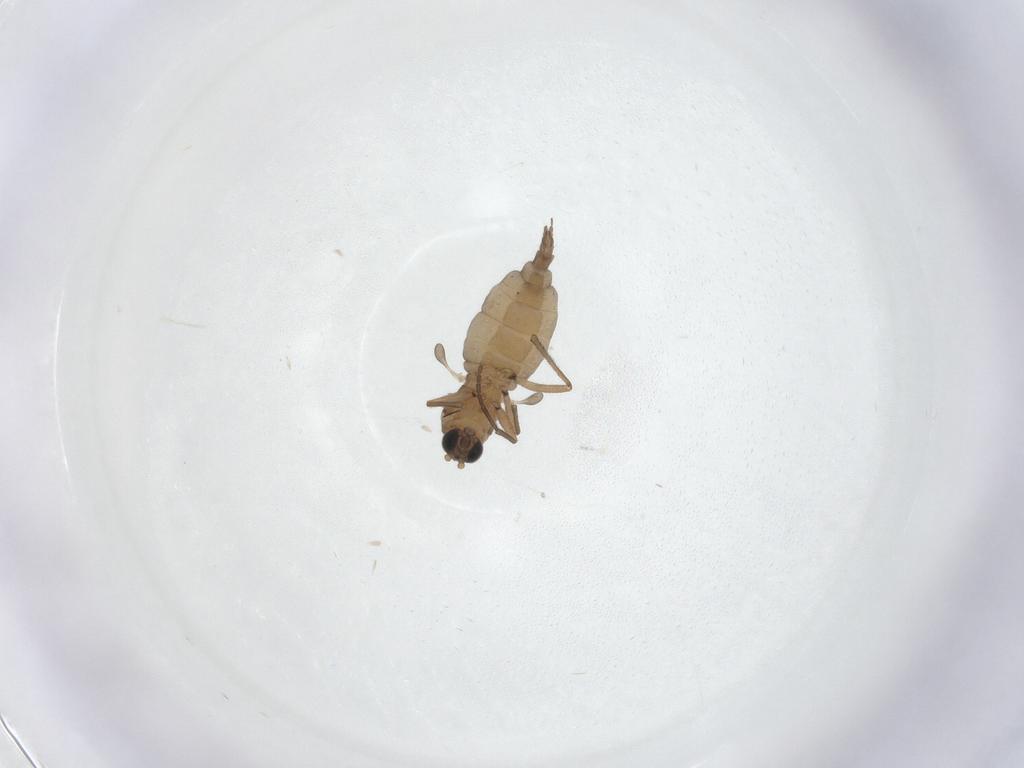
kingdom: Animalia
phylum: Arthropoda
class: Insecta
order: Diptera
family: Sciaridae
